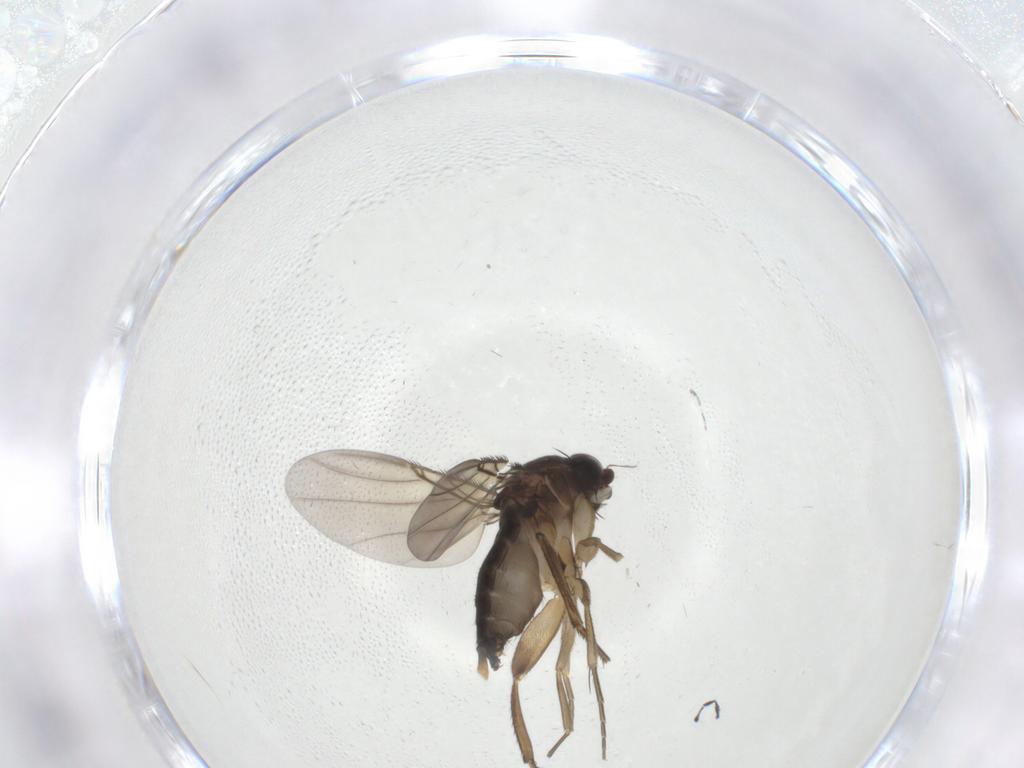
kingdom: Animalia
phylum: Arthropoda
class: Insecta
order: Diptera
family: Phoridae
